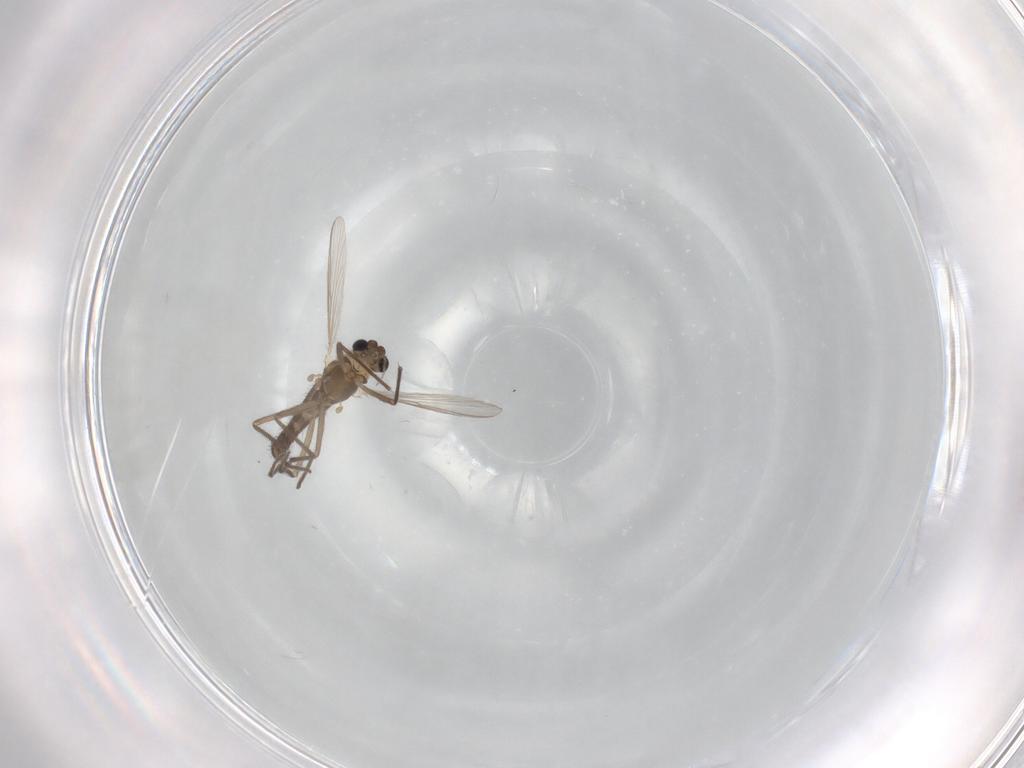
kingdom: Animalia
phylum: Arthropoda
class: Insecta
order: Diptera
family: Chironomidae
